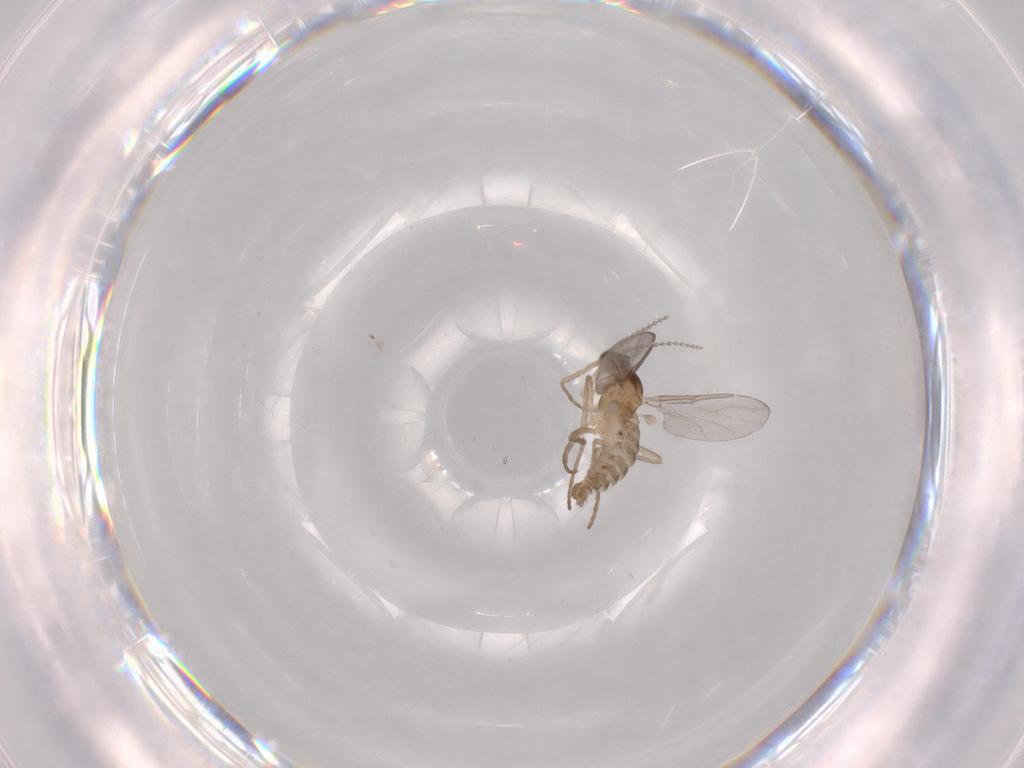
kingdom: Animalia
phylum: Arthropoda
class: Insecta
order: Diptera
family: Cecidomyiidae
